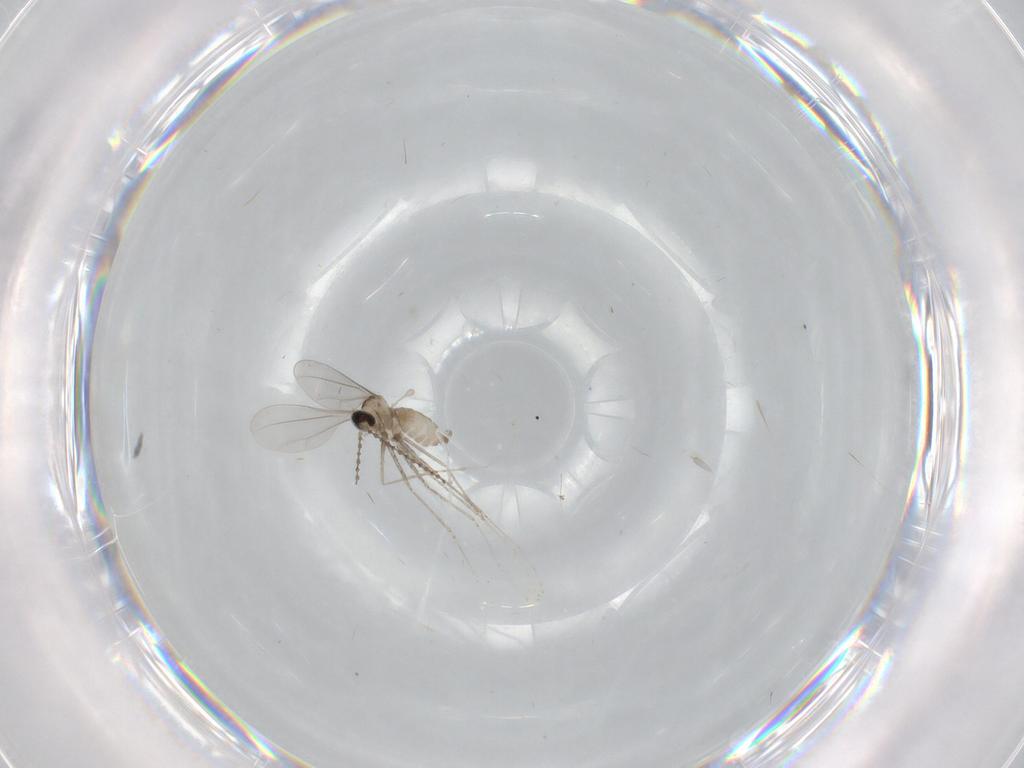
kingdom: Animalia
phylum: Arthropoda
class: Insecta
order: Diptera
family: Cecidomyiidae
